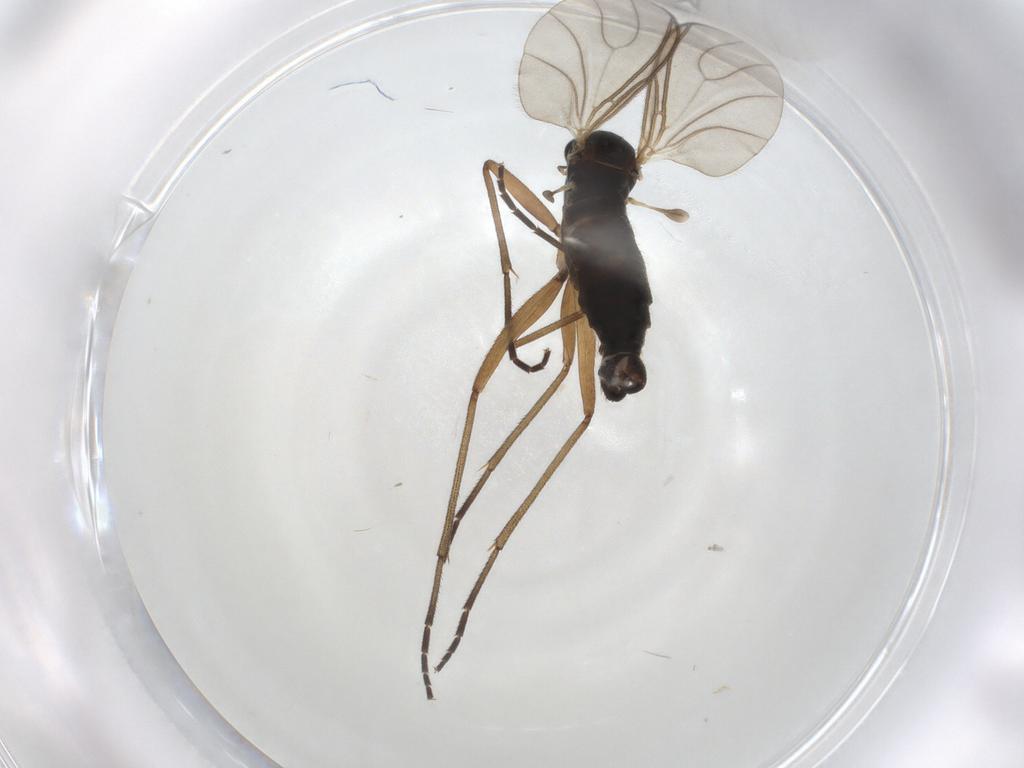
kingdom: Animalia
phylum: Arthropoda
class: Insecta
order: Diptera
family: Sciaridae
